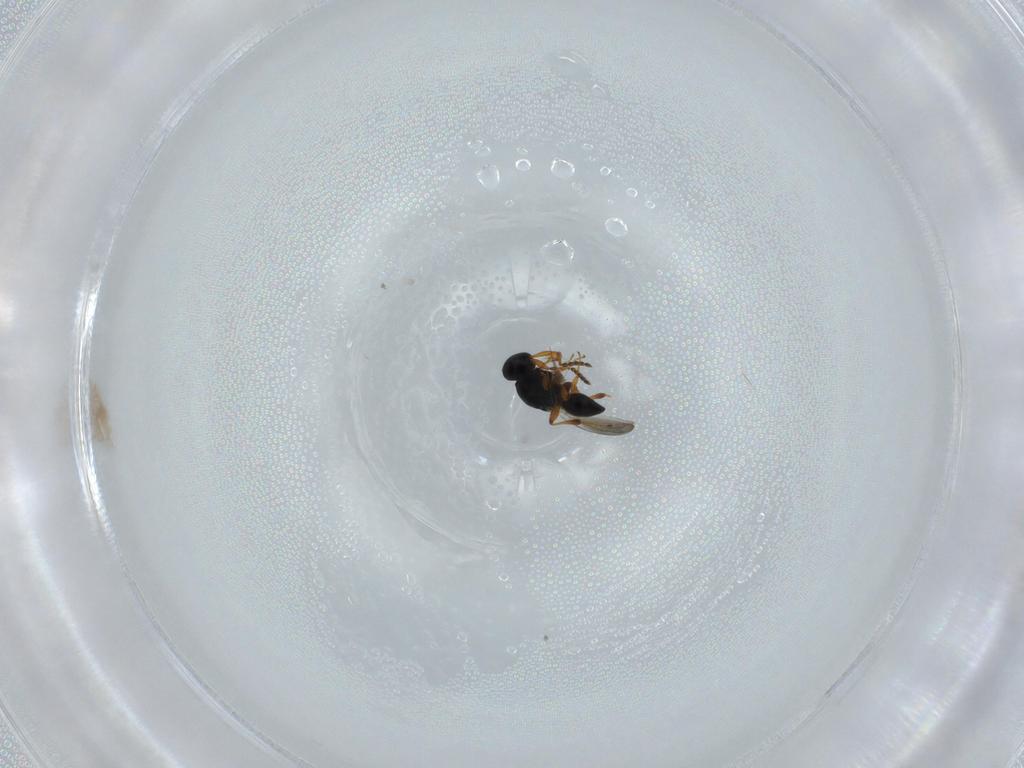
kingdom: Animalia
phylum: Arthropoda
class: Insecta
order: Hymenoptera
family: Platygastridae
